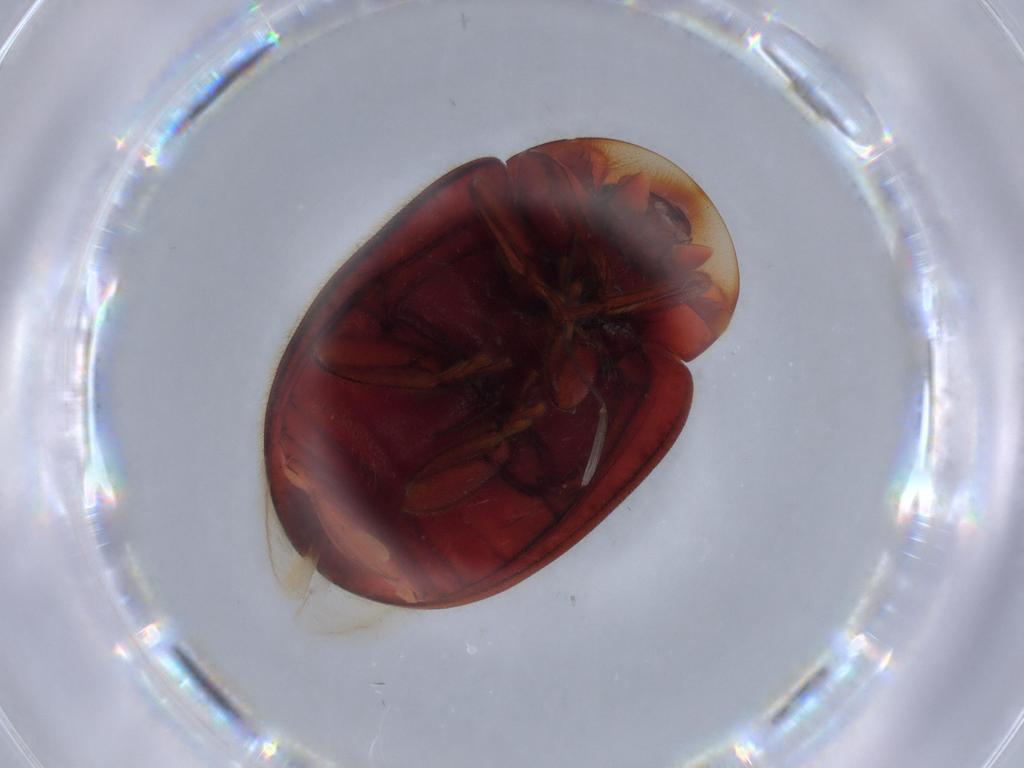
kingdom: Animalia
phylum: Arthropoda
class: Insecta
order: Coleoptera
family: Coccinellidae
